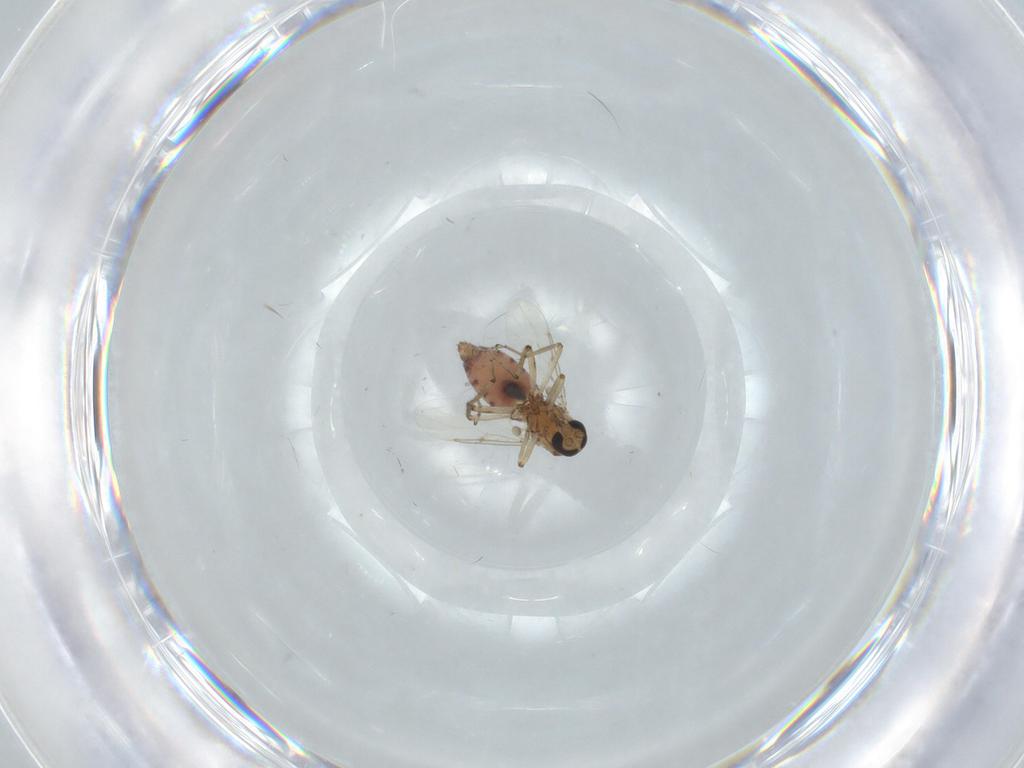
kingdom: Animalia
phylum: Arthropoda
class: Insecta
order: Diptera
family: Ceratopogonidae
